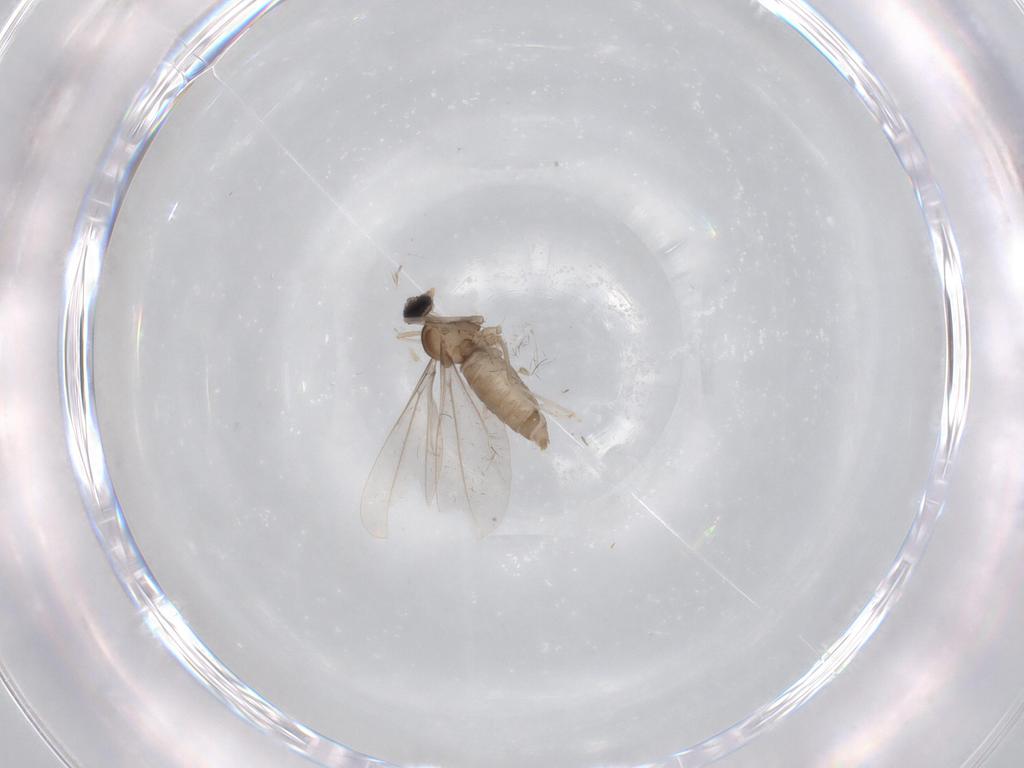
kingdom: Animalia
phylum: Arthropoda
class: Insecta
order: Diptera
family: Cecidomyiidae
